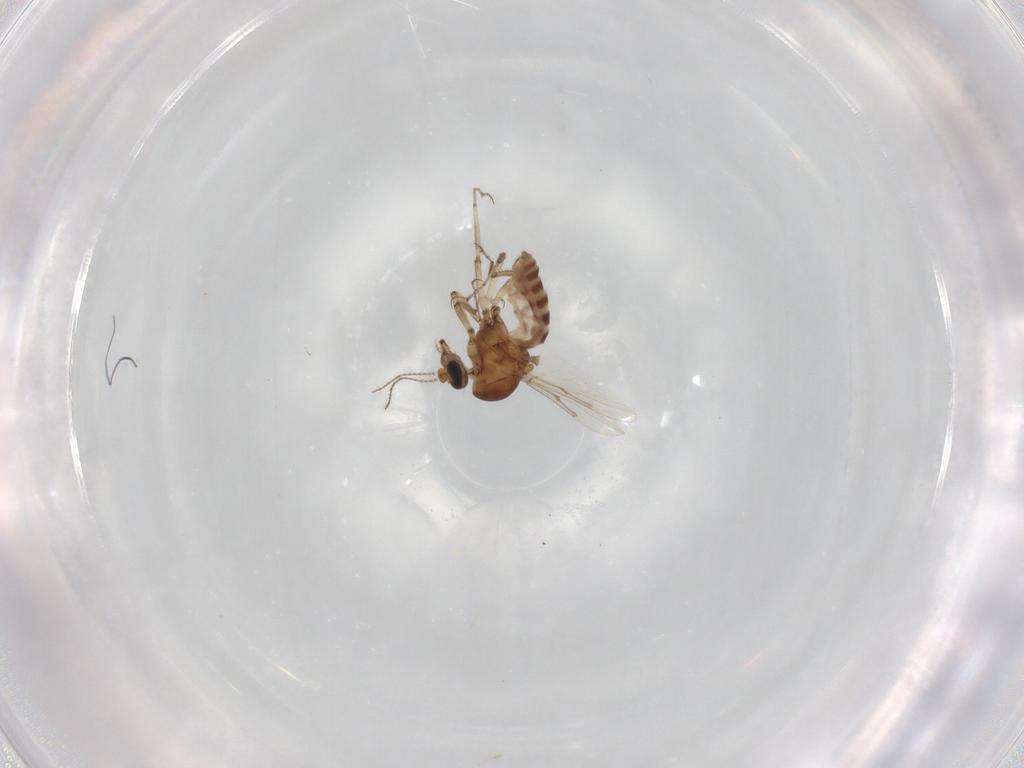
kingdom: Animalia
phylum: Arthropoda
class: Insecta
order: Diptera
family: Ceratopogonidae
